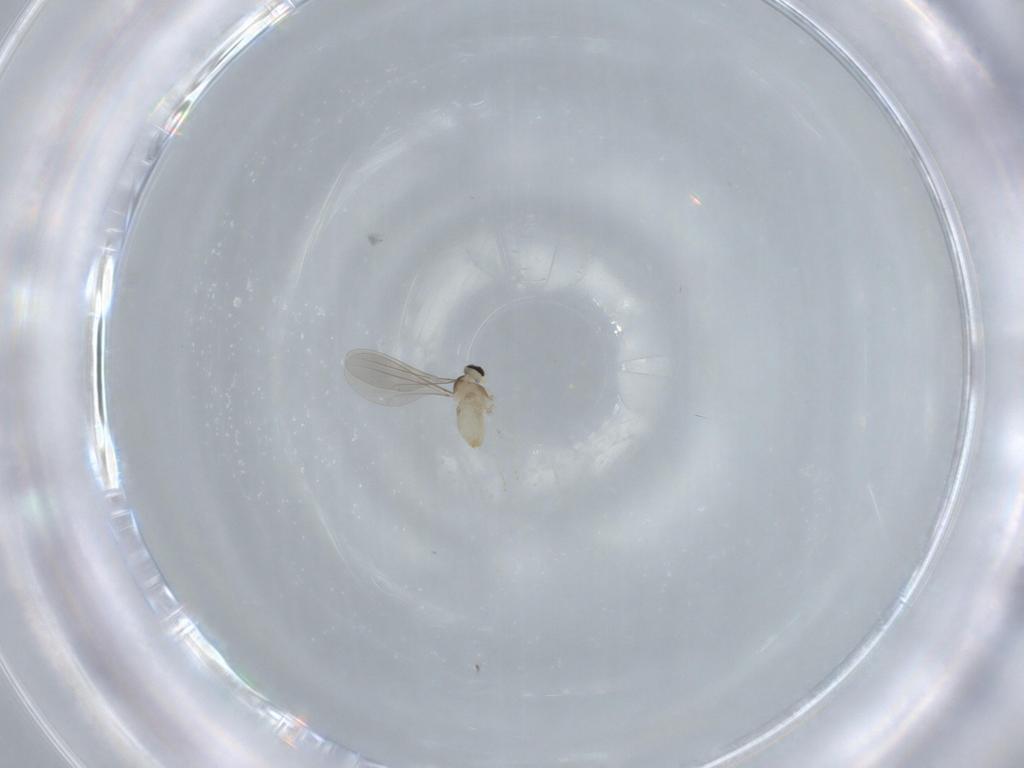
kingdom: Animalia
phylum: Arthropoda
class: Insecta
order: Diptera
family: Cecidomyiidae
